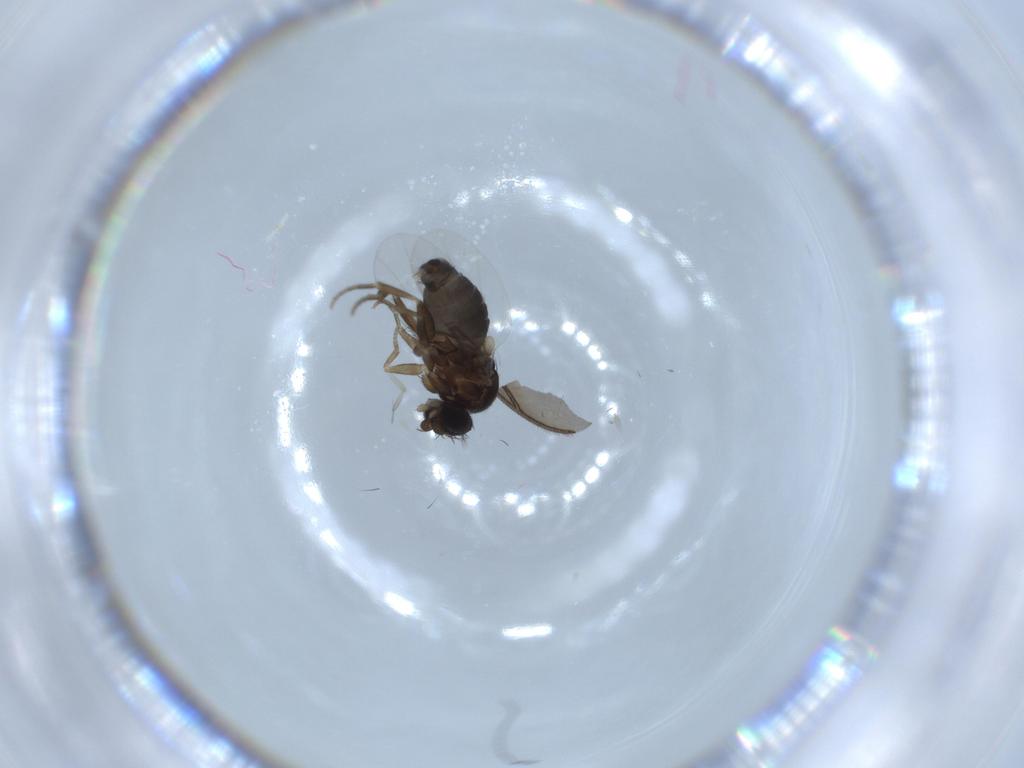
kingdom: Animalia
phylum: Arthropoda
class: Insecta
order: Diptera
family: Phoridae
